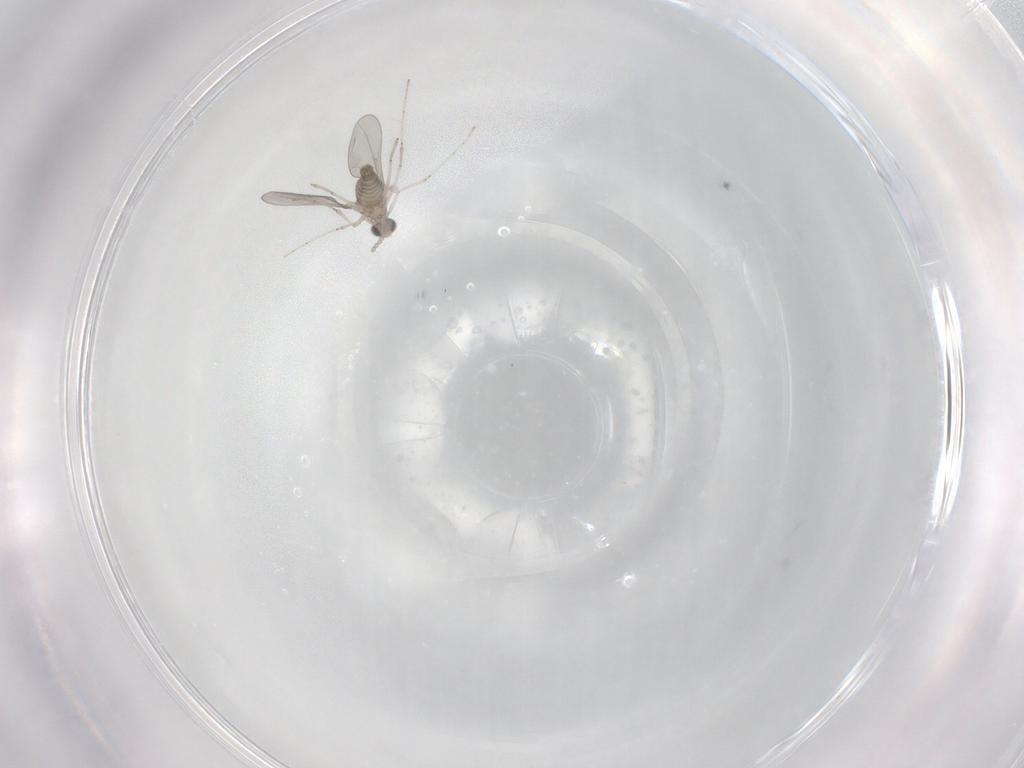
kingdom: Animalia
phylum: Arthropoda
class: Insecta
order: Diptera
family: Cecidomyiidae
